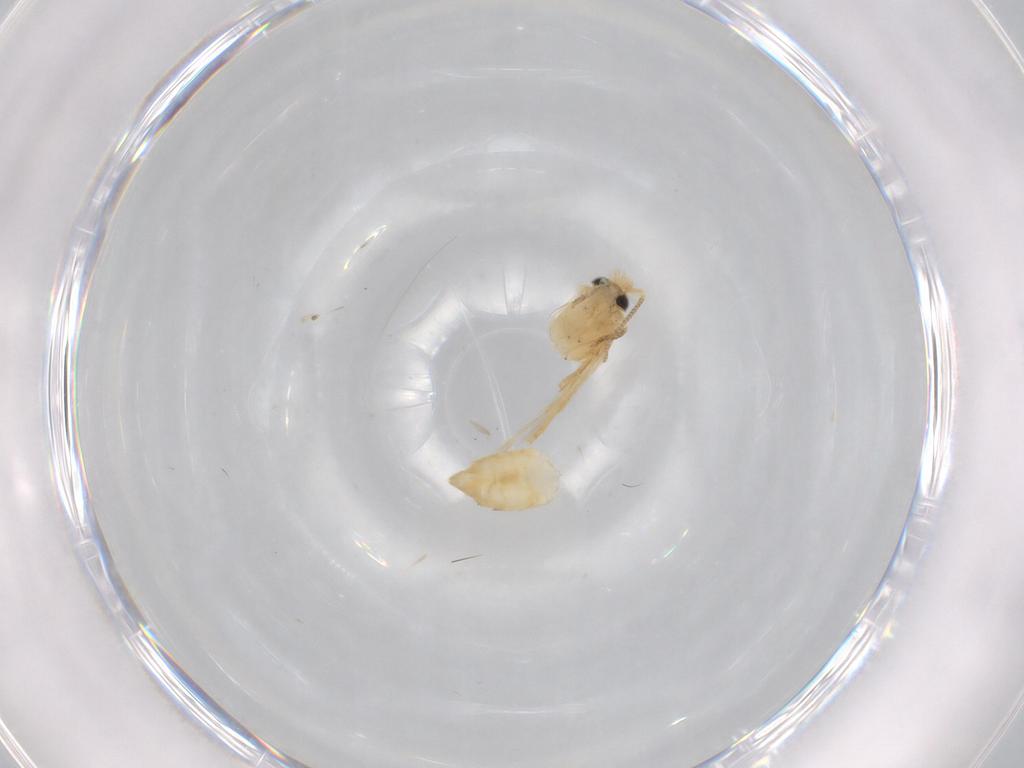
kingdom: Animalia
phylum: Arthropoda
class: Insecta
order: Lepidoptera
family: Nepticulidae
